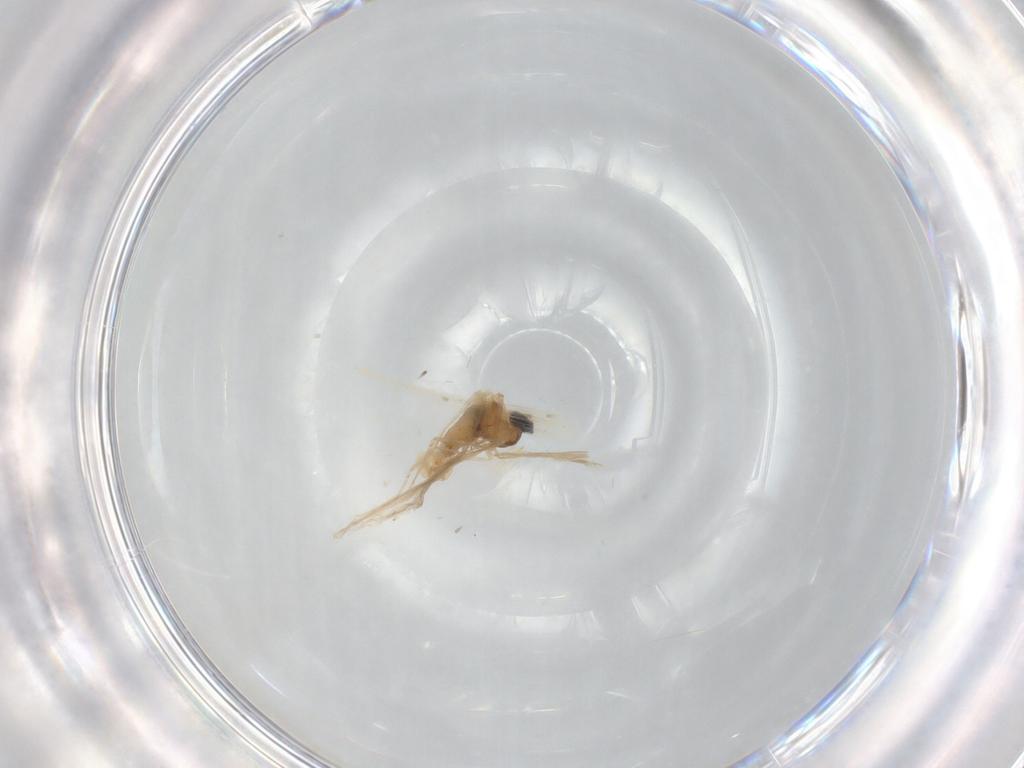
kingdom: Animalia
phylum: Arthropoda
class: Insecta
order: Diptera
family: Cecidomyiidae
